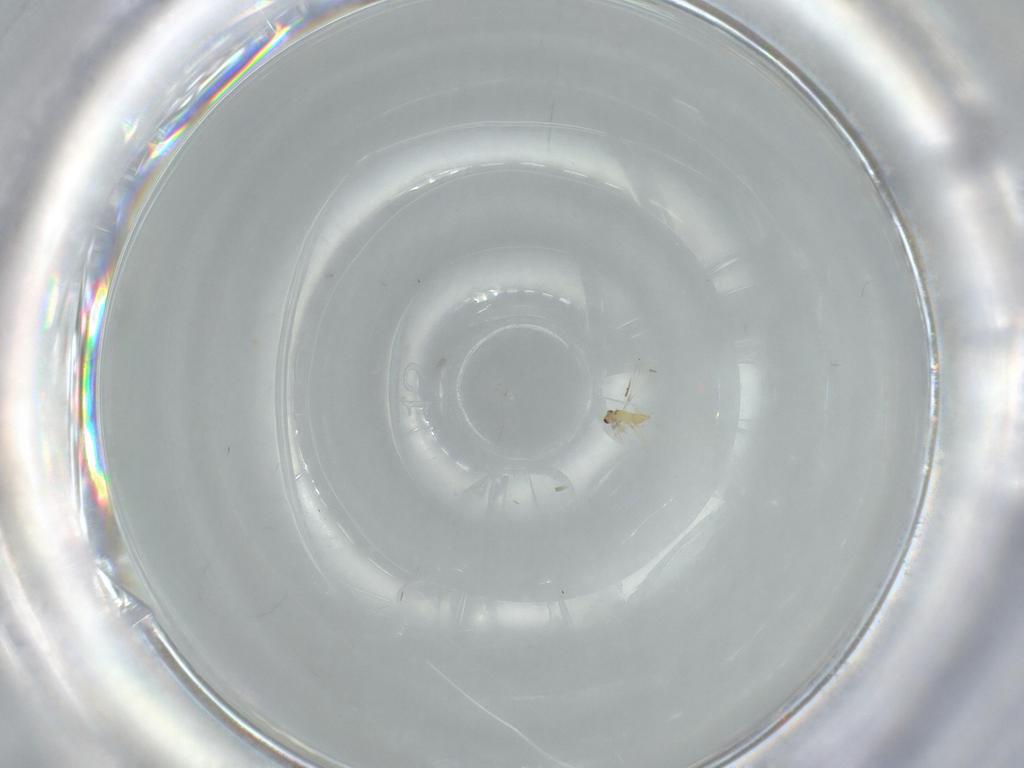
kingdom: Animalia
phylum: Arthropoda
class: Insecta
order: Hymenoptera
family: Mymaridae
